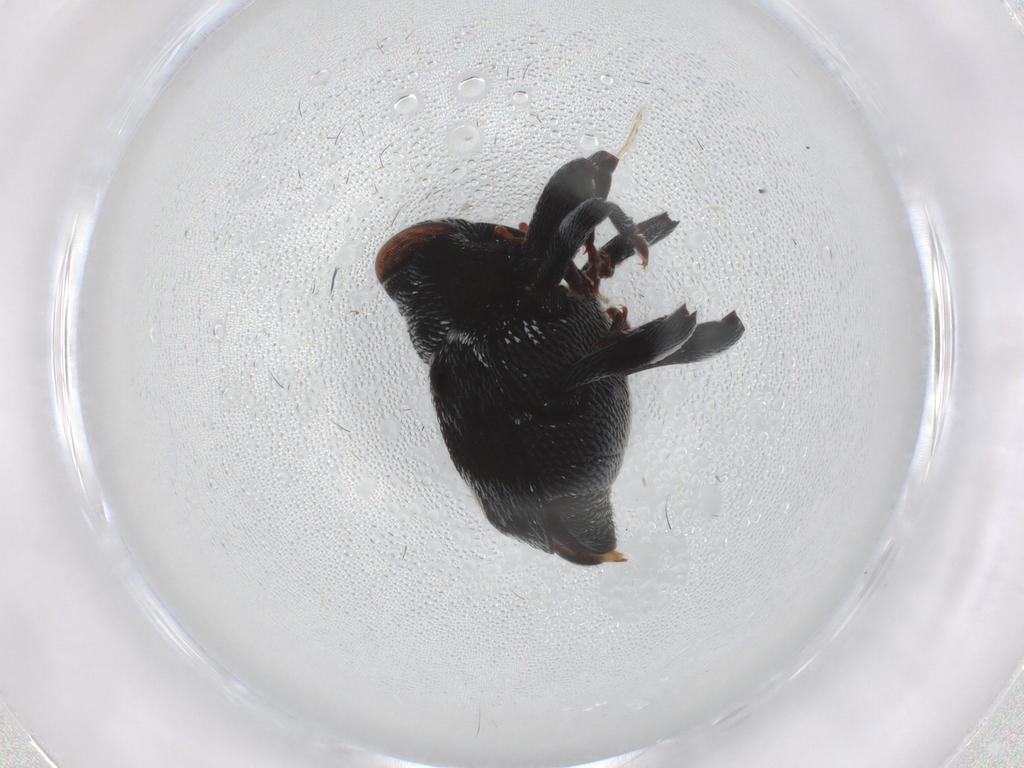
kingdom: Animalia
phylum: Arthropoda
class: Insecta
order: Coleoptera
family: Curculionidae
